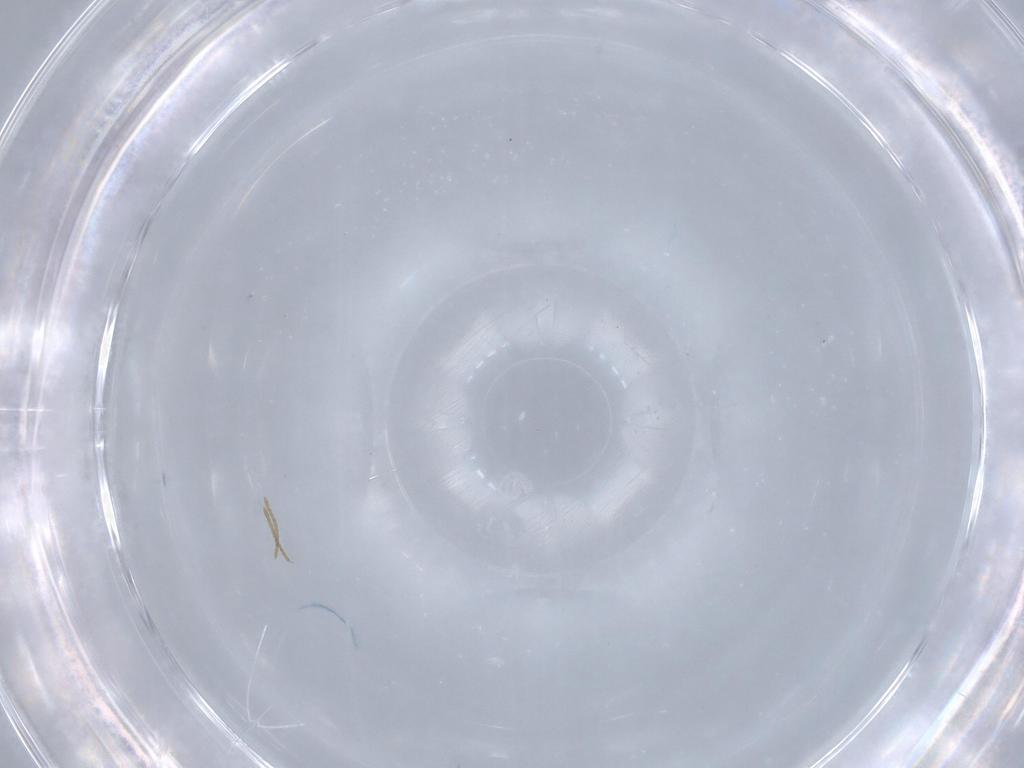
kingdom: Animalia
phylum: Arthropoda
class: Insecta
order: Hymenoptera
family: Formicidae
